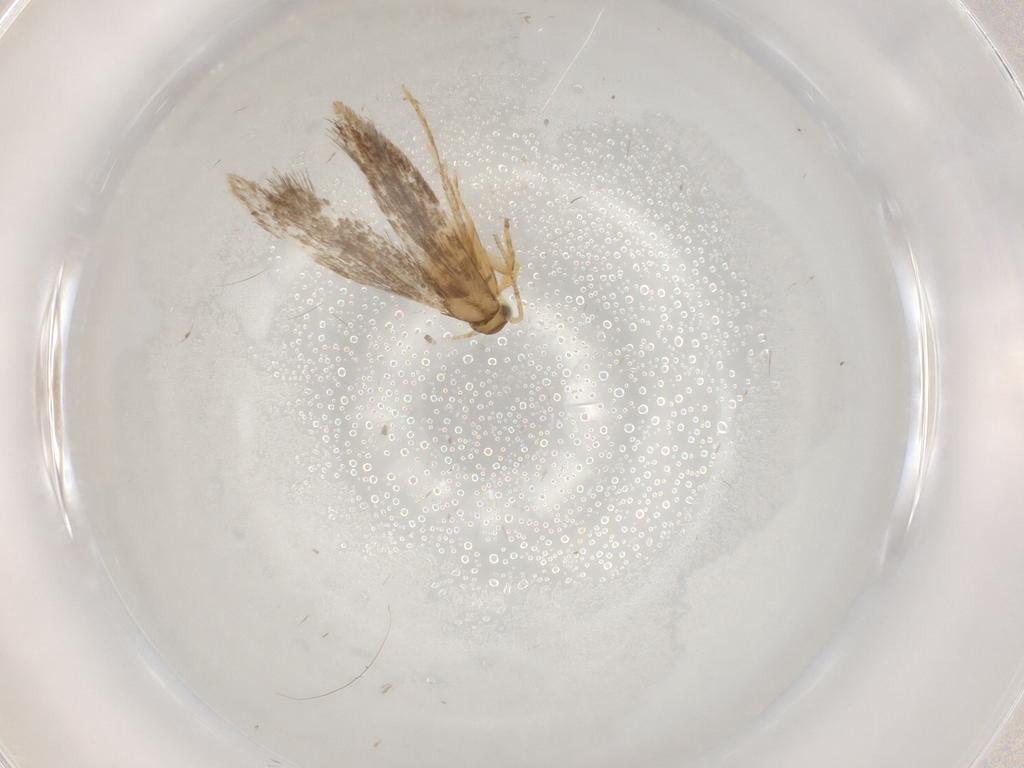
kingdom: Animalia
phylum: Arthropoda
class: Insecta
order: Lepidoptera
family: Dryadaulidae
